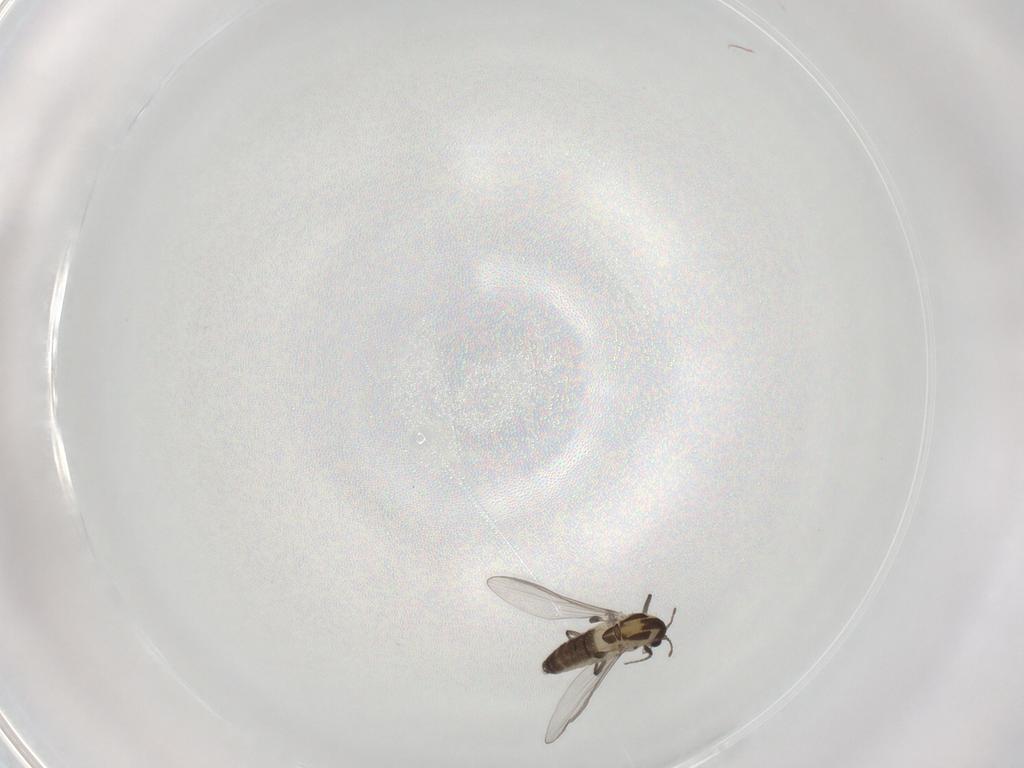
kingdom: Animalia
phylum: Arthropoda
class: Insecta
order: Diptera
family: Chironomidae
